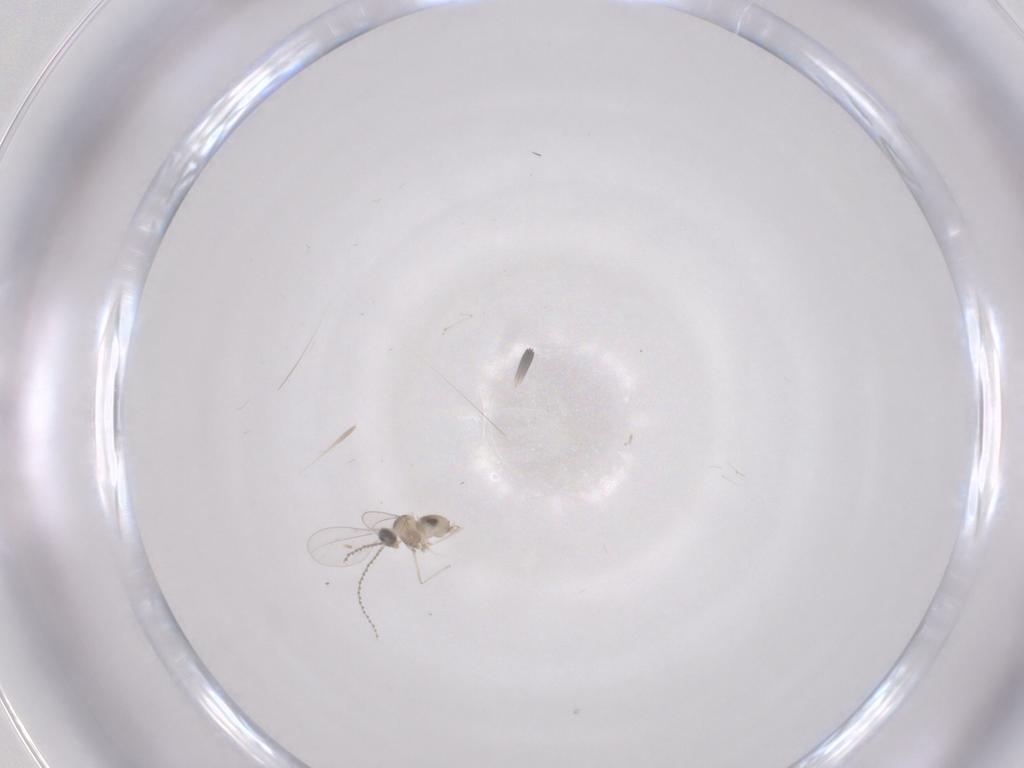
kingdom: Animalia
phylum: Arthropoda
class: Insecta
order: Diptera
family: Cecidomyiidae
